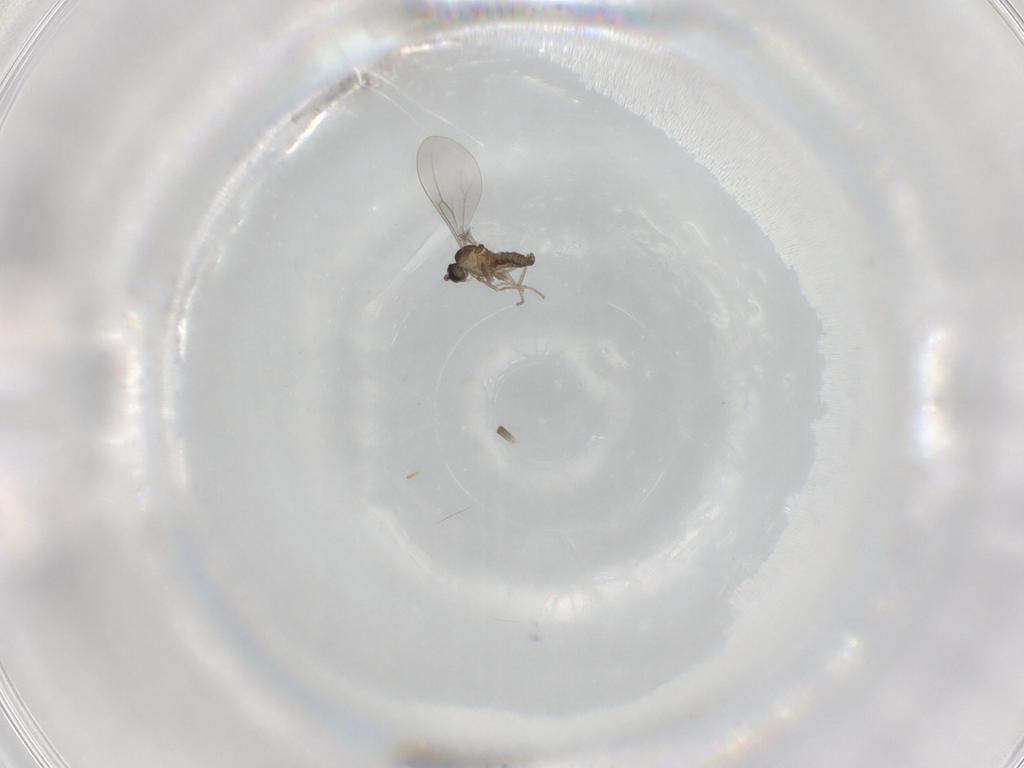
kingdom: Animalia
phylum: Arthropoda
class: Insecta
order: Diptera
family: Cecidomyiidae
